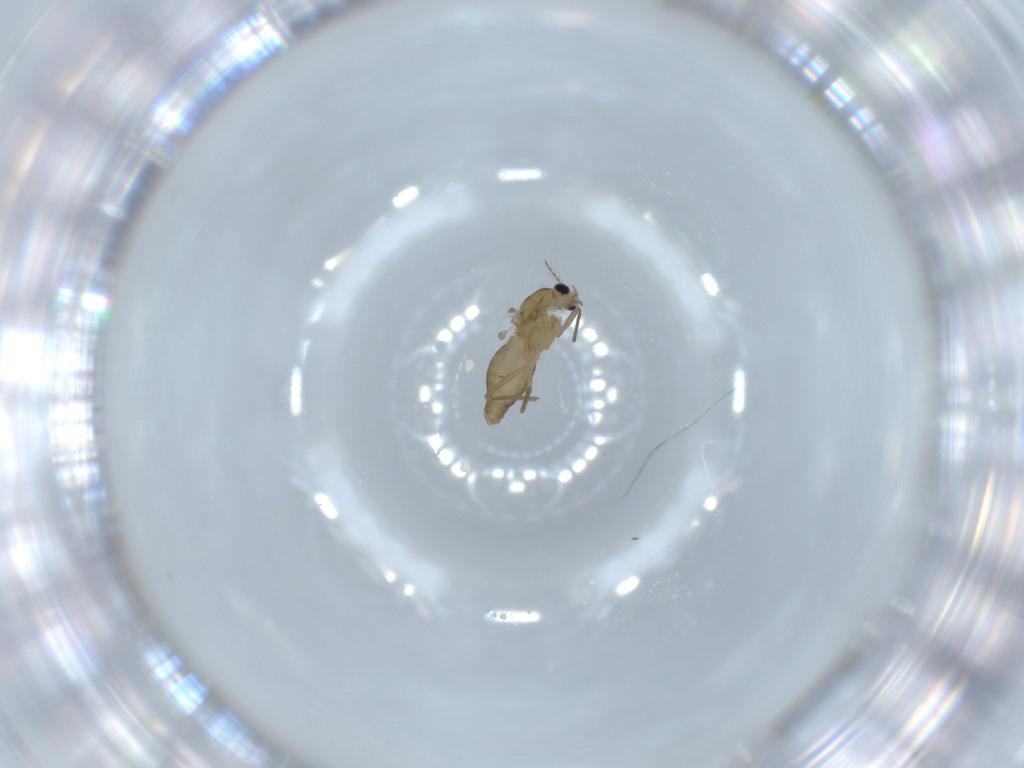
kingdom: Animalia
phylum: Arthropoda
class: Insecta
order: Diptera
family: Chironomidae
